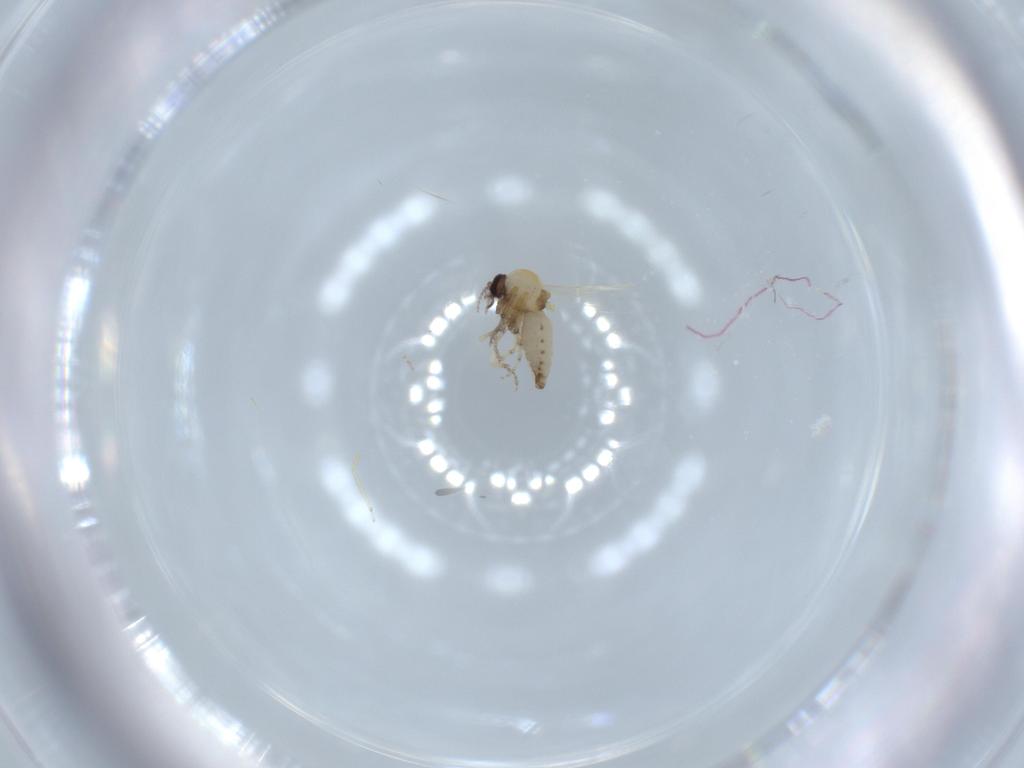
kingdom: Animalia
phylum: Arthropoda
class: Insecta
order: Diptera
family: Ceratopogonidae
